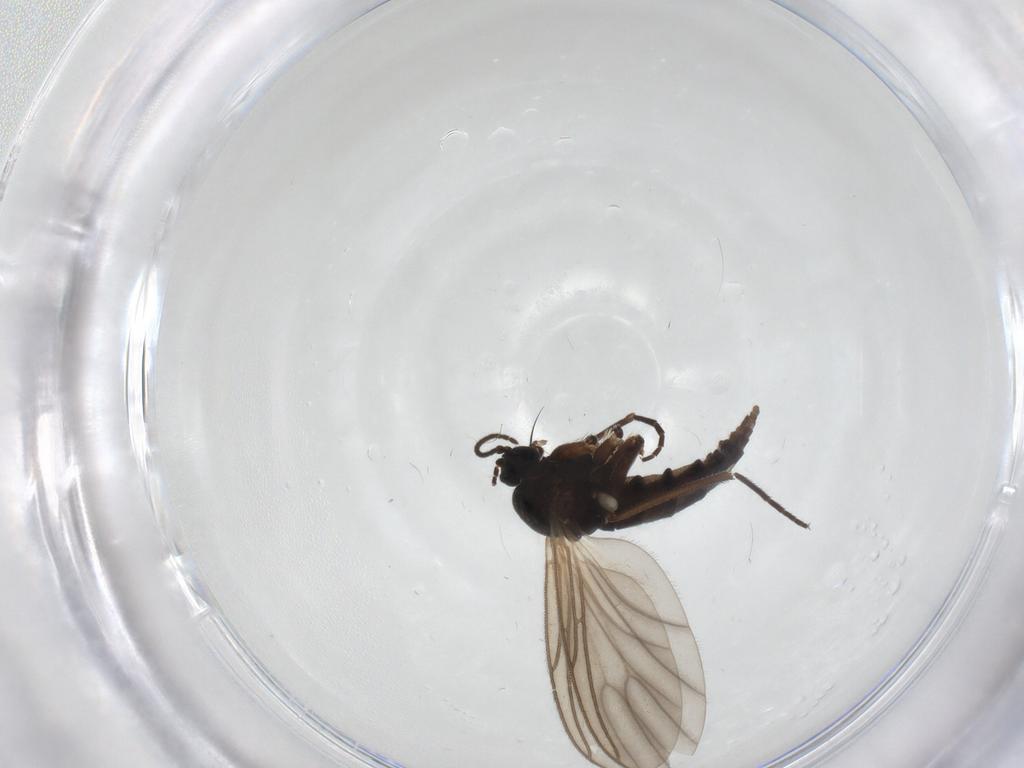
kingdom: Animalia
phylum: Arthropoda
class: Insecta
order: Diptera
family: Sciaridae
